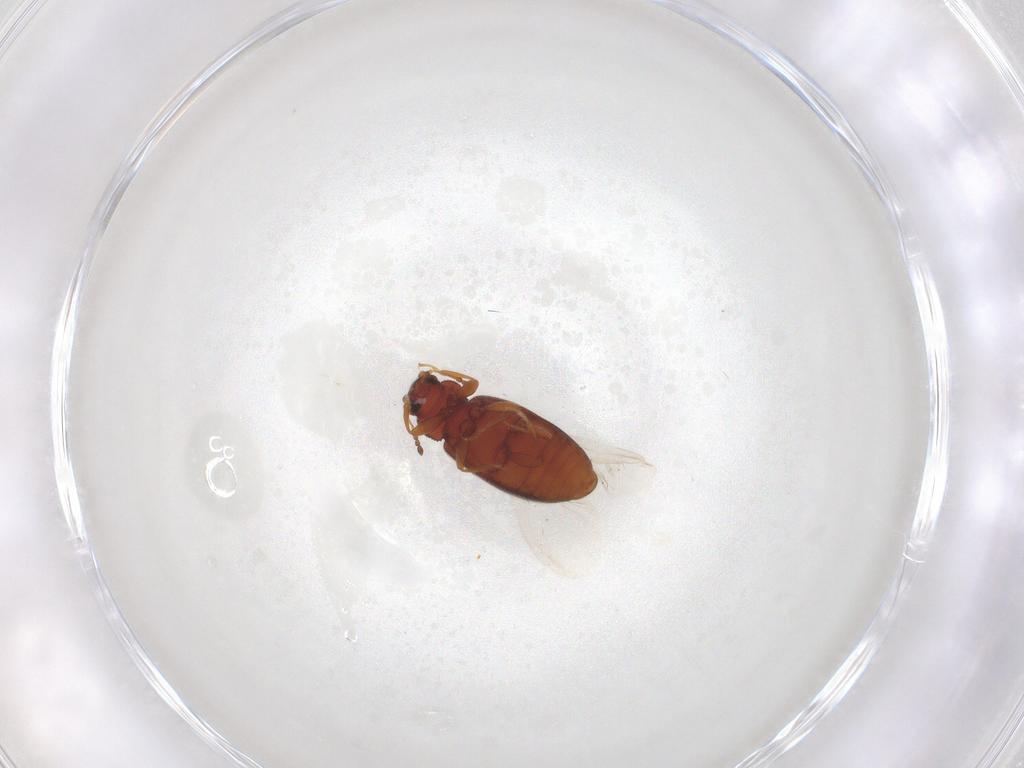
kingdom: Animalia
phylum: Arthropoda
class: Insecta
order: Coleoptera
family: Latridiidae
